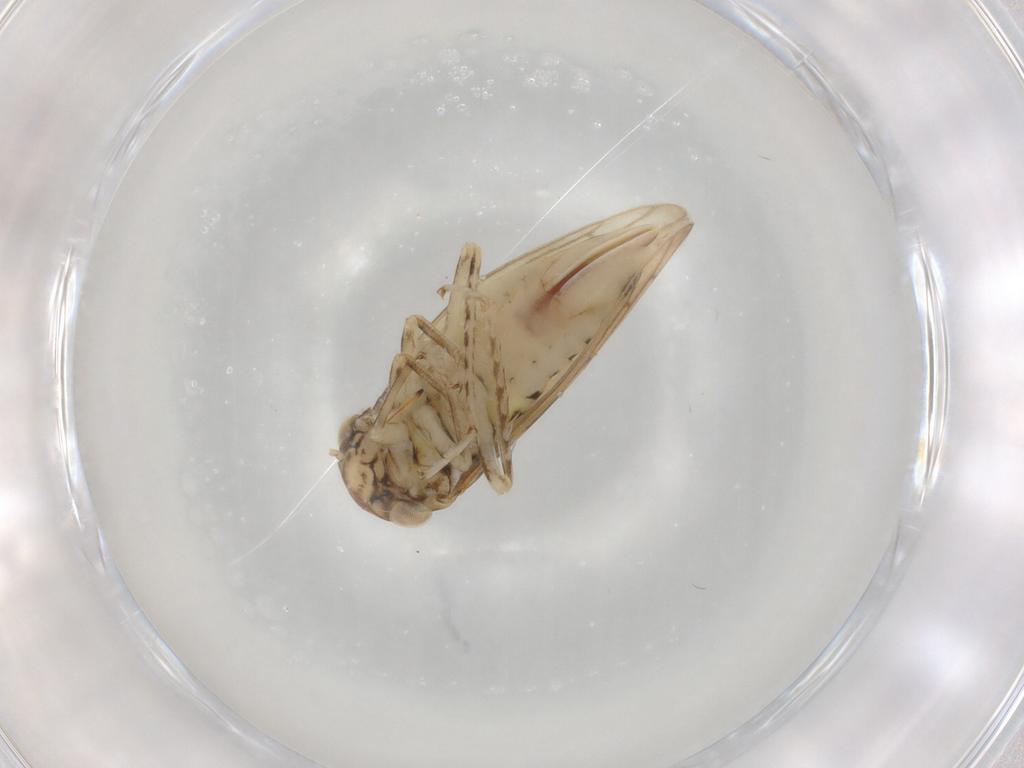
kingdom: Animalia
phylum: Arthropoda
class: Insecta
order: Hemiptera
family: Cicadellidae
